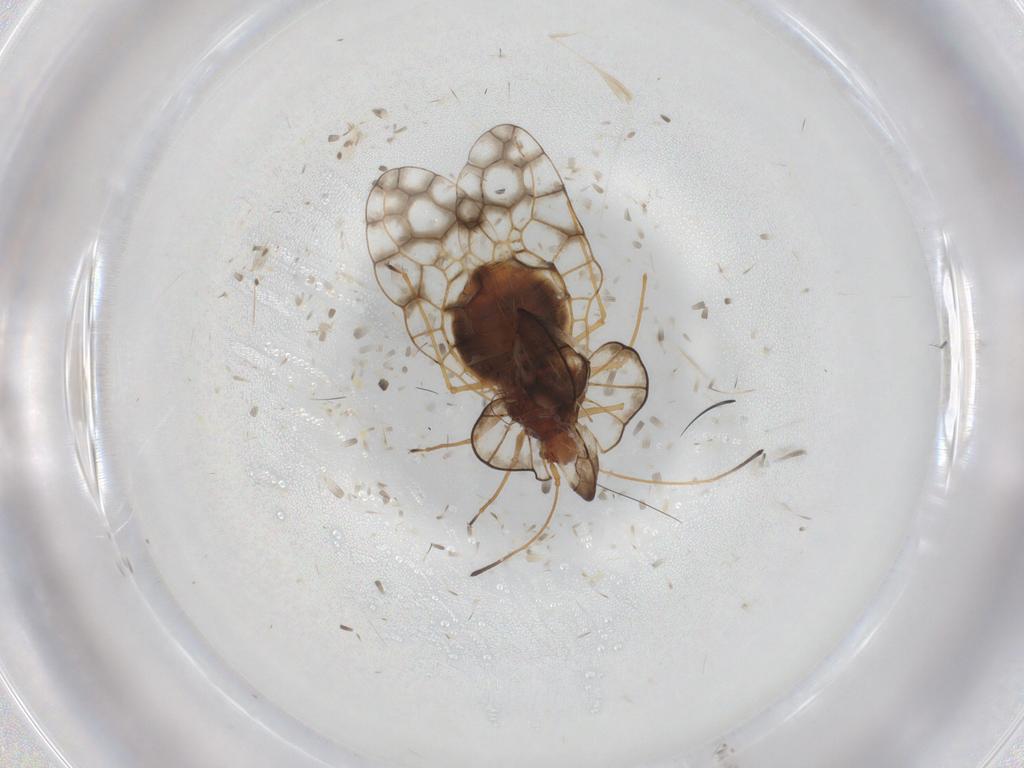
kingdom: Animalia
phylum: Arthropoda
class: Insecta
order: Hemiptera
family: Tingidae
